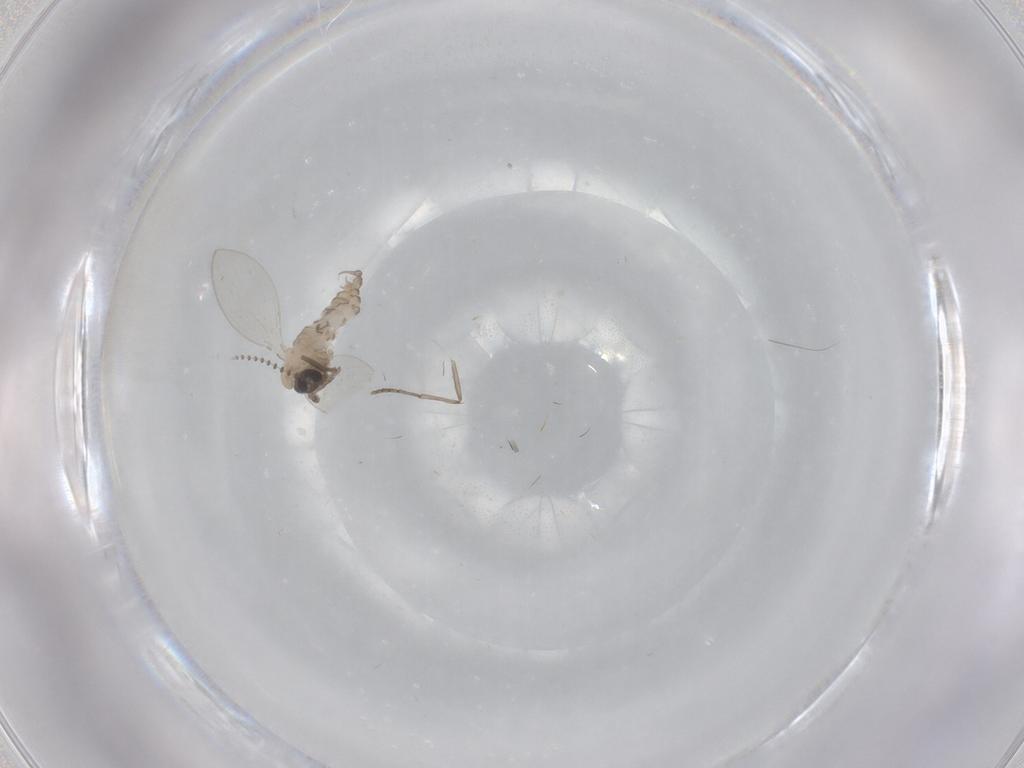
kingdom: Animalia
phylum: Arthropoda
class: Insecta
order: Diptera
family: Psychodidae
